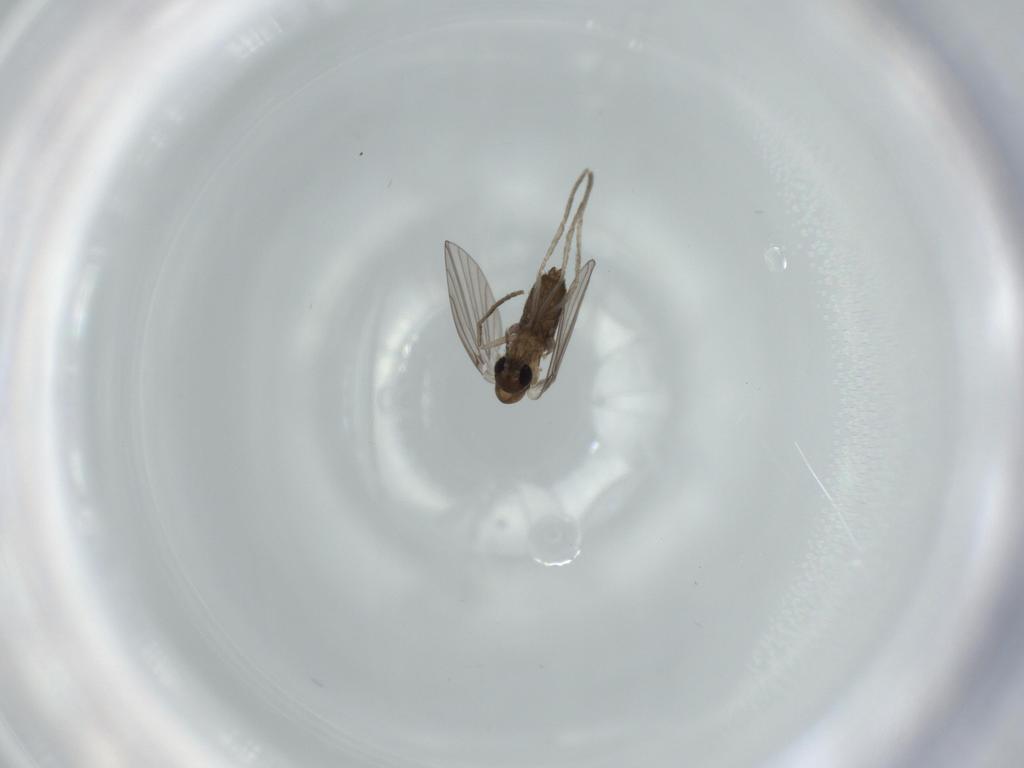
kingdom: Animalia
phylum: Arthropoda
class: Insecta
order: Diptera
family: Psychodidae
